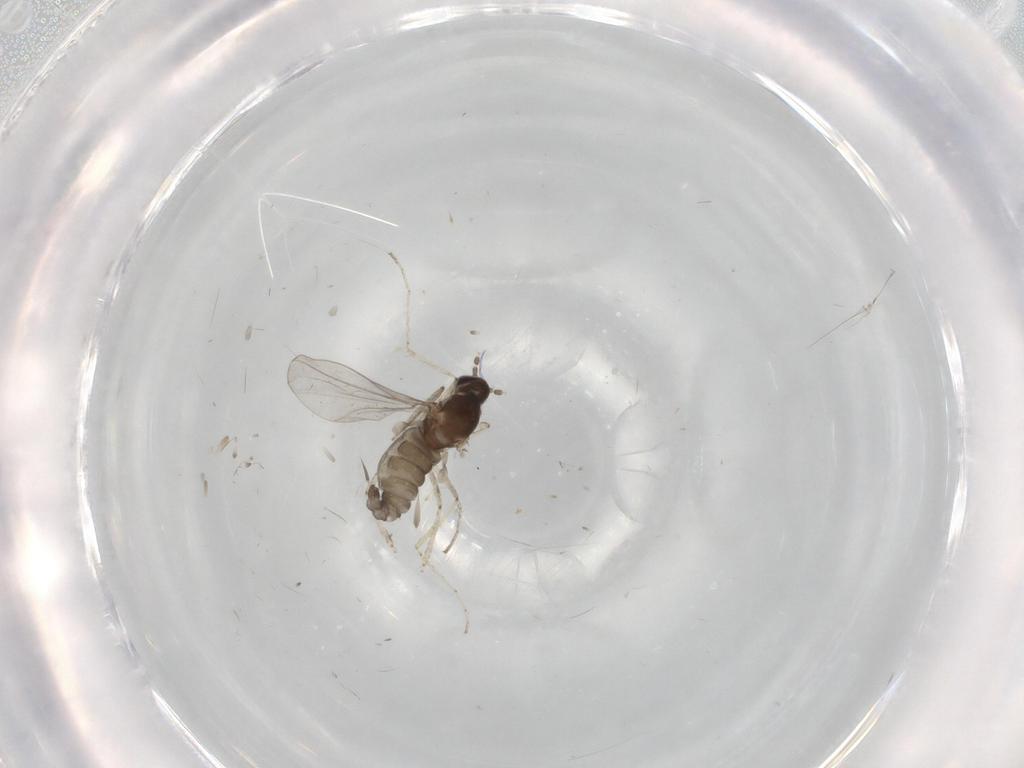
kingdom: Animalia
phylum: Arthropoda
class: Insecta
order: Diptera
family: Cecidomyiidae
